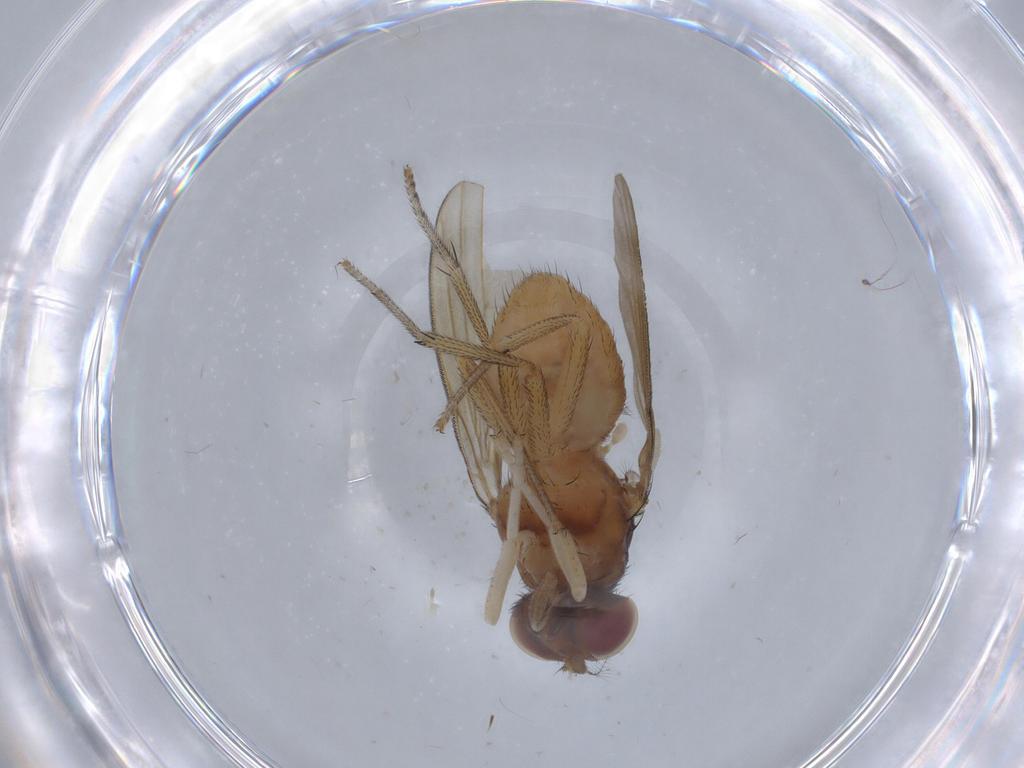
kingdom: Animalia
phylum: Arthropoda
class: Insecta
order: Diptera
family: Lauxaniidae
